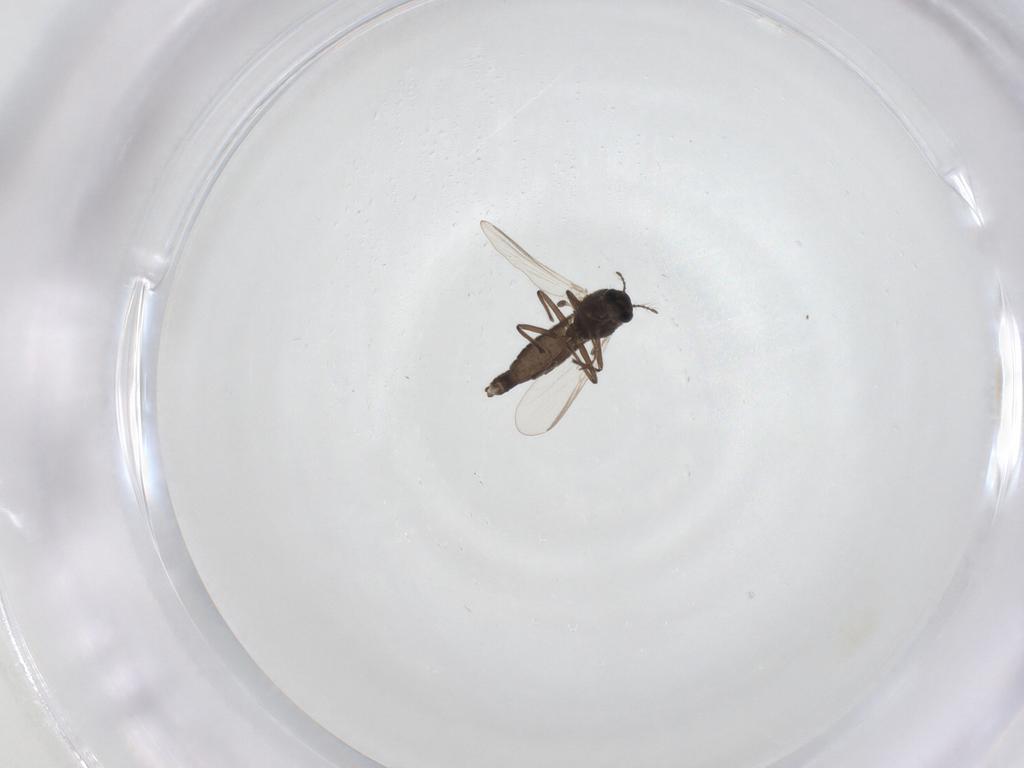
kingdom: Animalia
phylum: Arthropoda
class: Insecta
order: Diptera
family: Chironomidae
